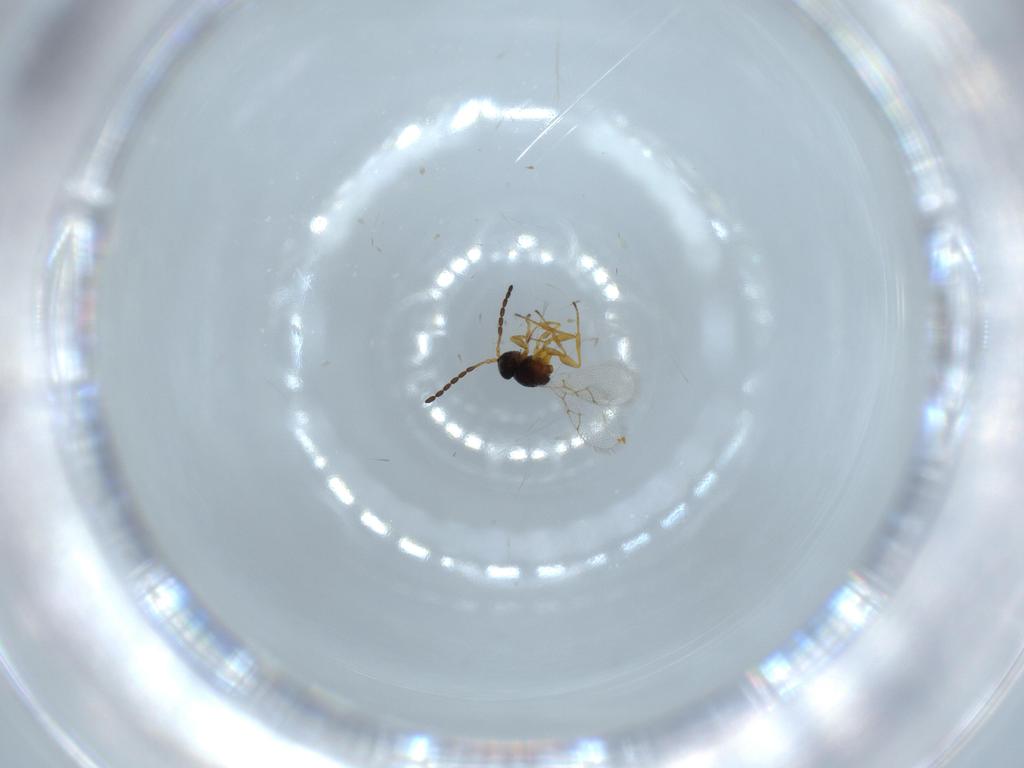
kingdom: Animalia
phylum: Arthropoda
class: Insecta
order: Hymenoptera
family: Figitidae
